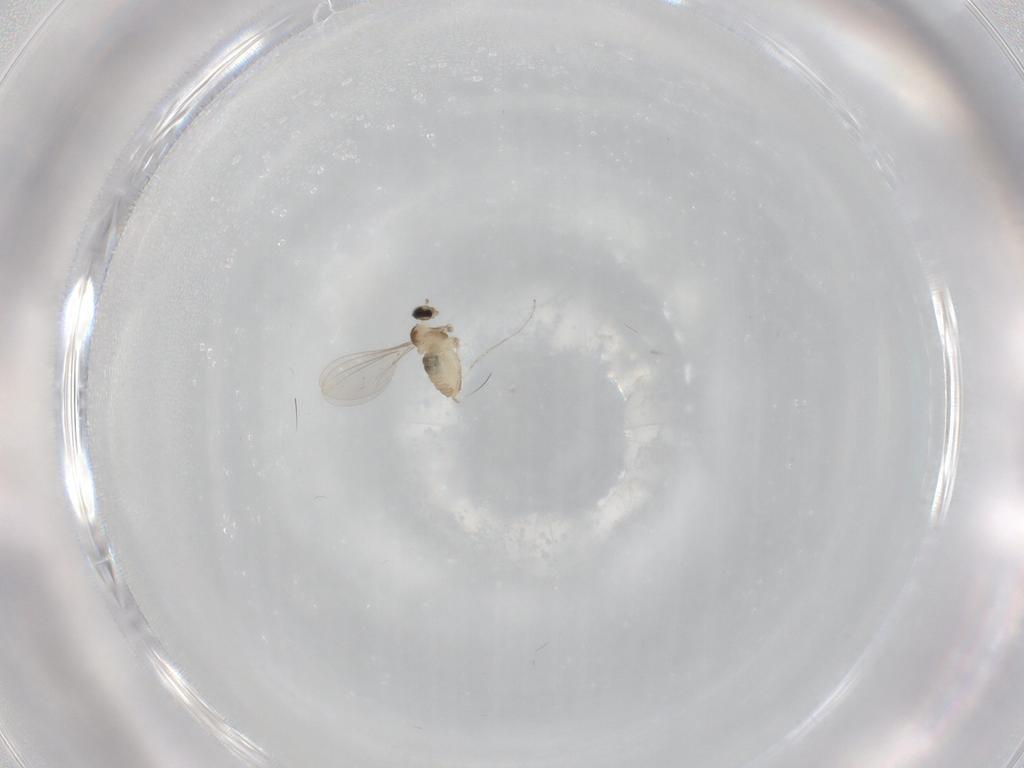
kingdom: Animalia
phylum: Arthropoda
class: Insecta
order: Diptera
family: Cecidomyiidae
